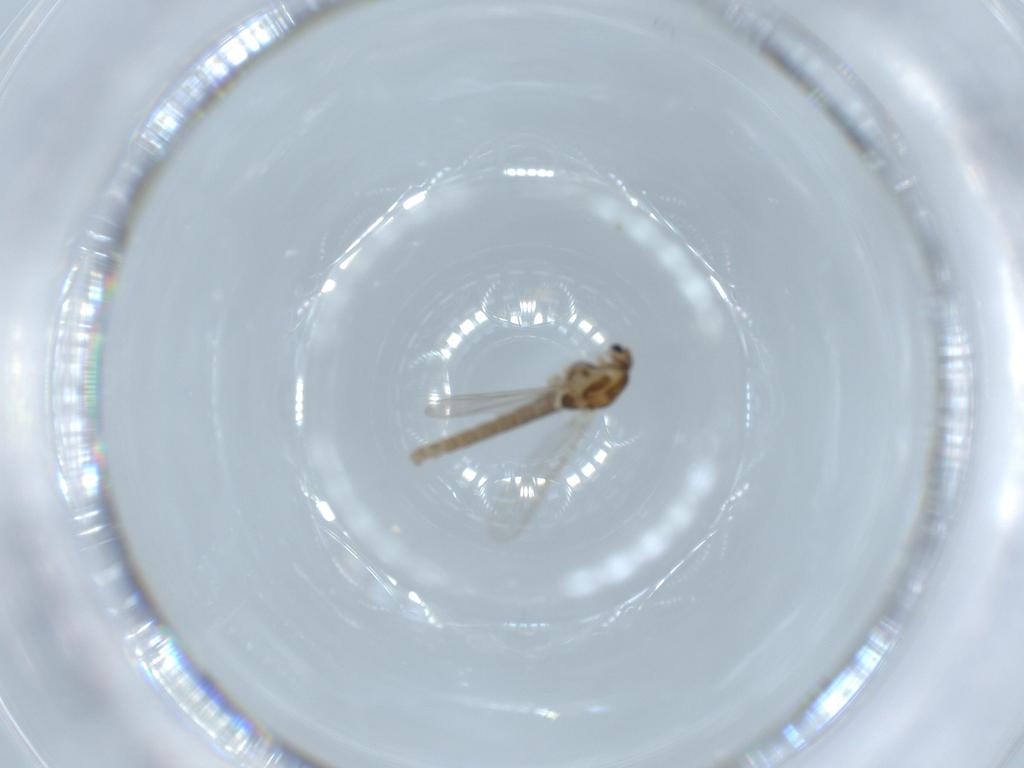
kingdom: Animalia
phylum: Arthropoda
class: Insecta
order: Diptera
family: Chironomidae
